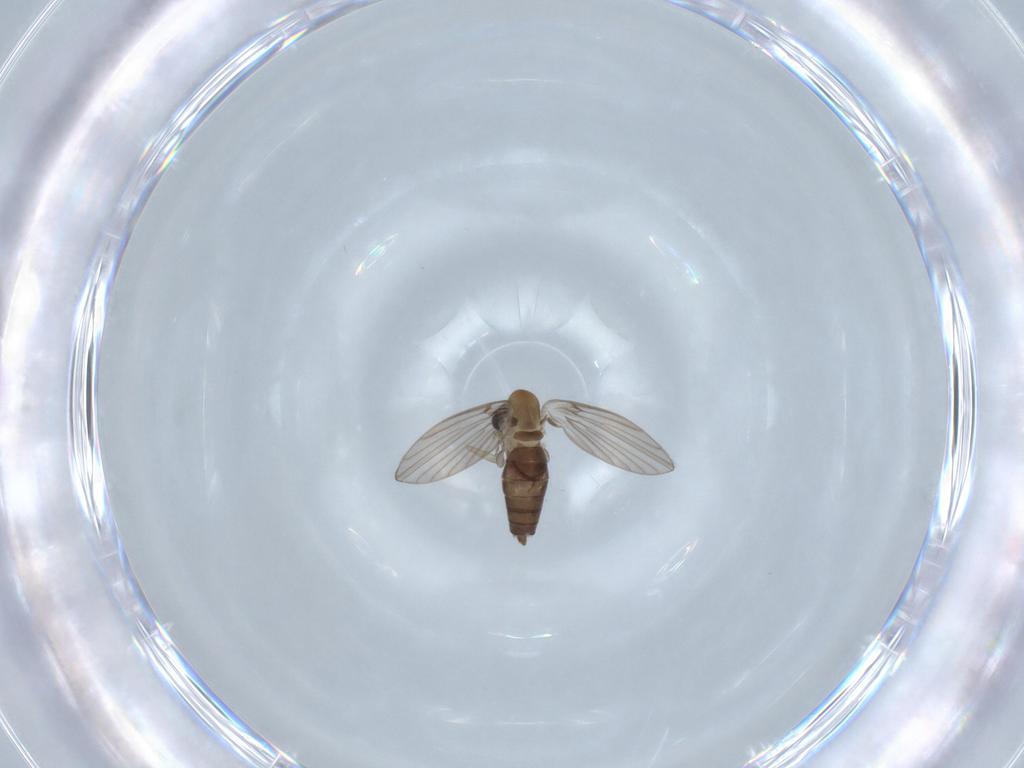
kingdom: Animalia
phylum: Arthropoda
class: Insecta
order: Diptera
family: Psychodidae
